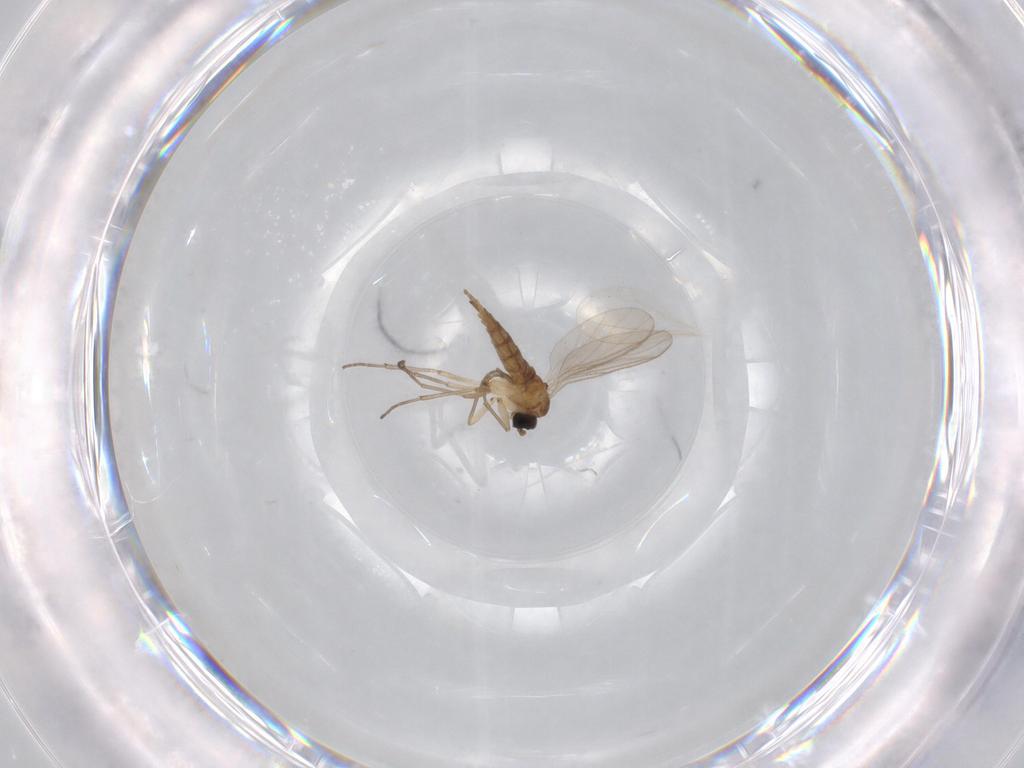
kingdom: Animalia
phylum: Arthropoda
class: Insecta
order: Diptera
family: Sciaridae
